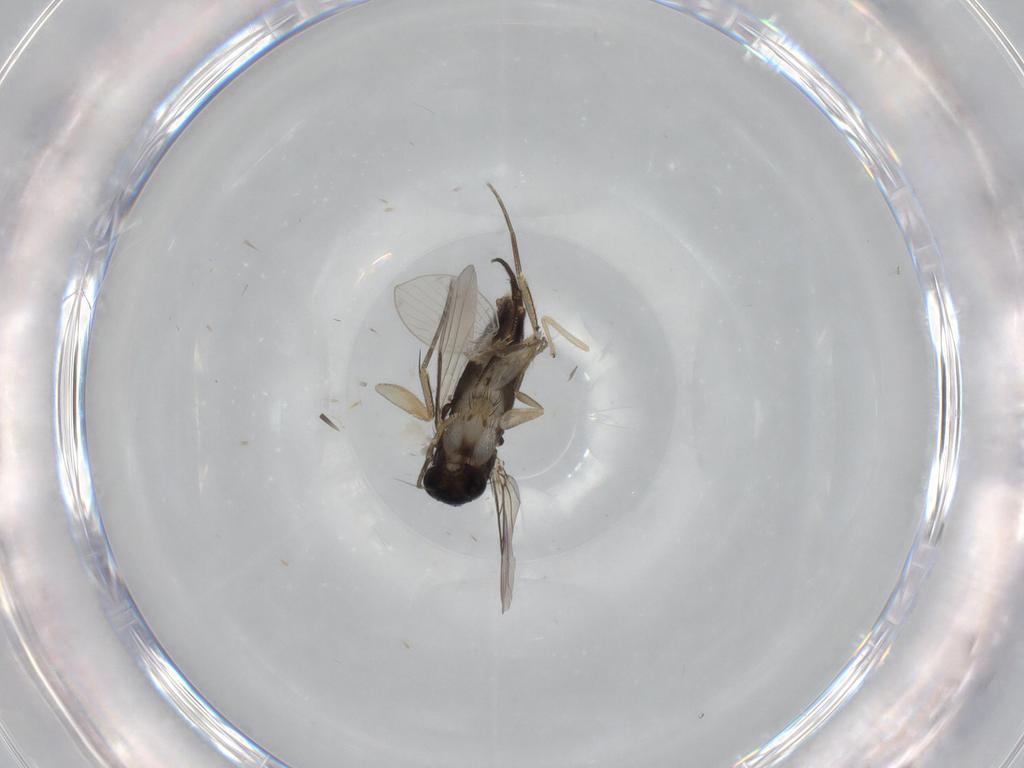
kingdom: Animalia
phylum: Arthropoda
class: Insecta
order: Diptera
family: Phoridae
